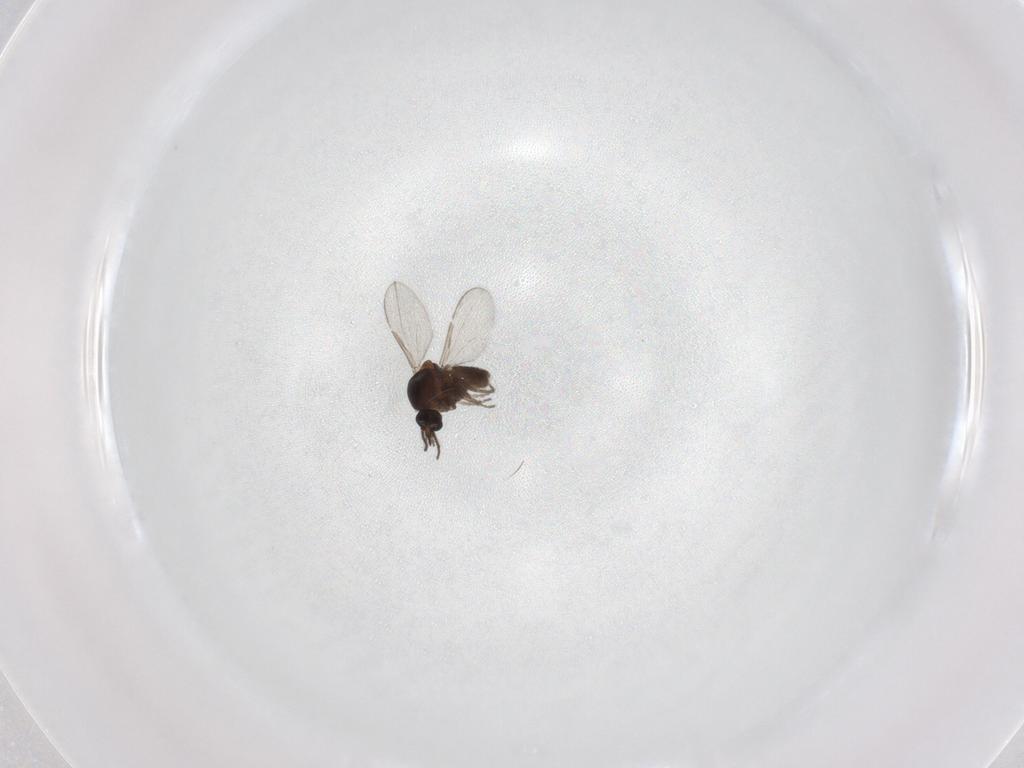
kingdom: Animalia
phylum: Arthropoda
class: Insecta
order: Diptera
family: Ceratopogonidae
